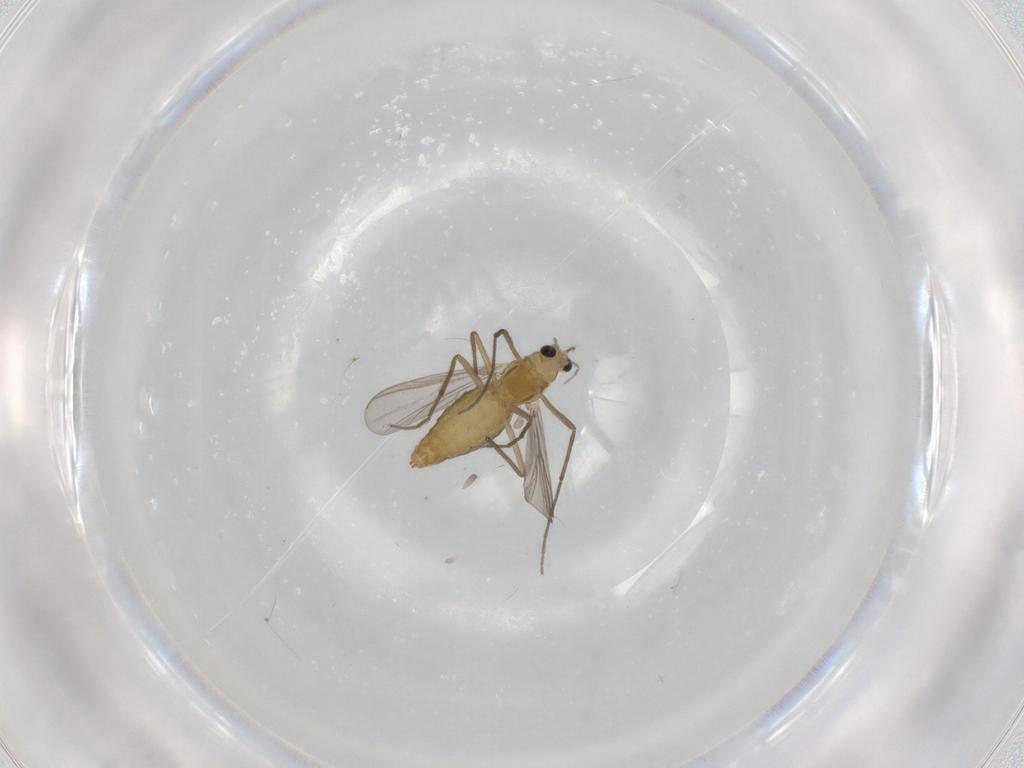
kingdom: Animalia
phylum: Arthropoda
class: Insecta
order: Diptera
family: Chironomidae
